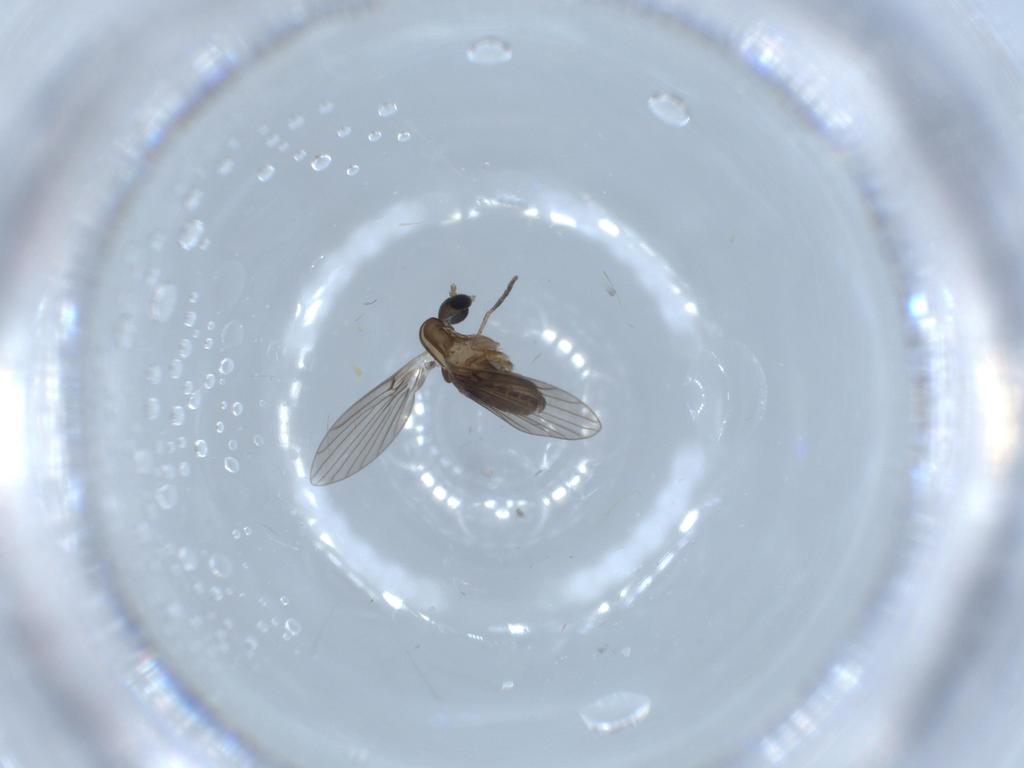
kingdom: Animalia
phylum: Arthropoda
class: Insecta
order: Diptera
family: Psychodidae
